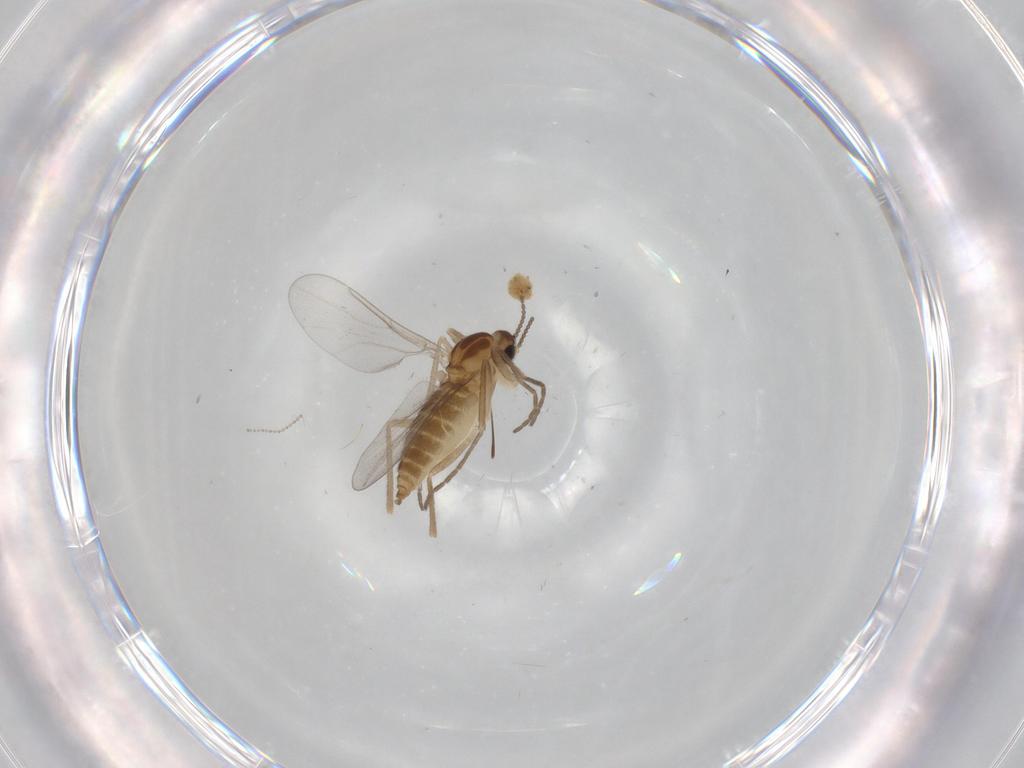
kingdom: Animalia
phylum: Arthropoda
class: Insecta
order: Diptera
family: Cecidomyiidae
